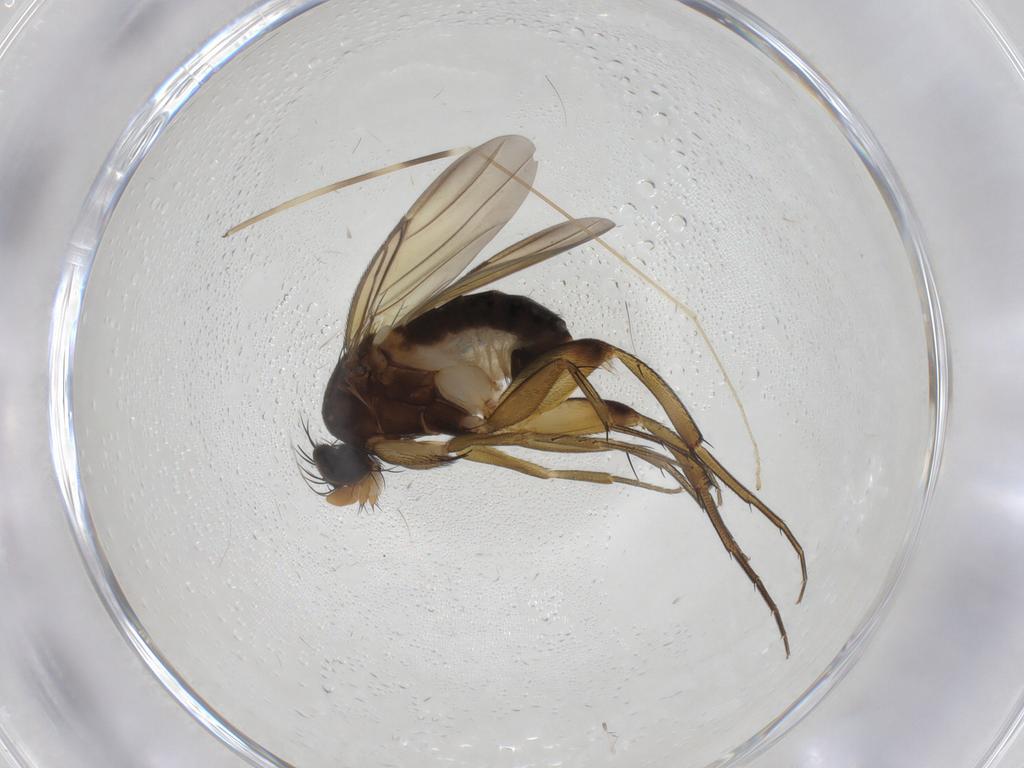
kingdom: Animalia
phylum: Arthropoda
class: Insecta
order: Diptera
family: Phoridae
